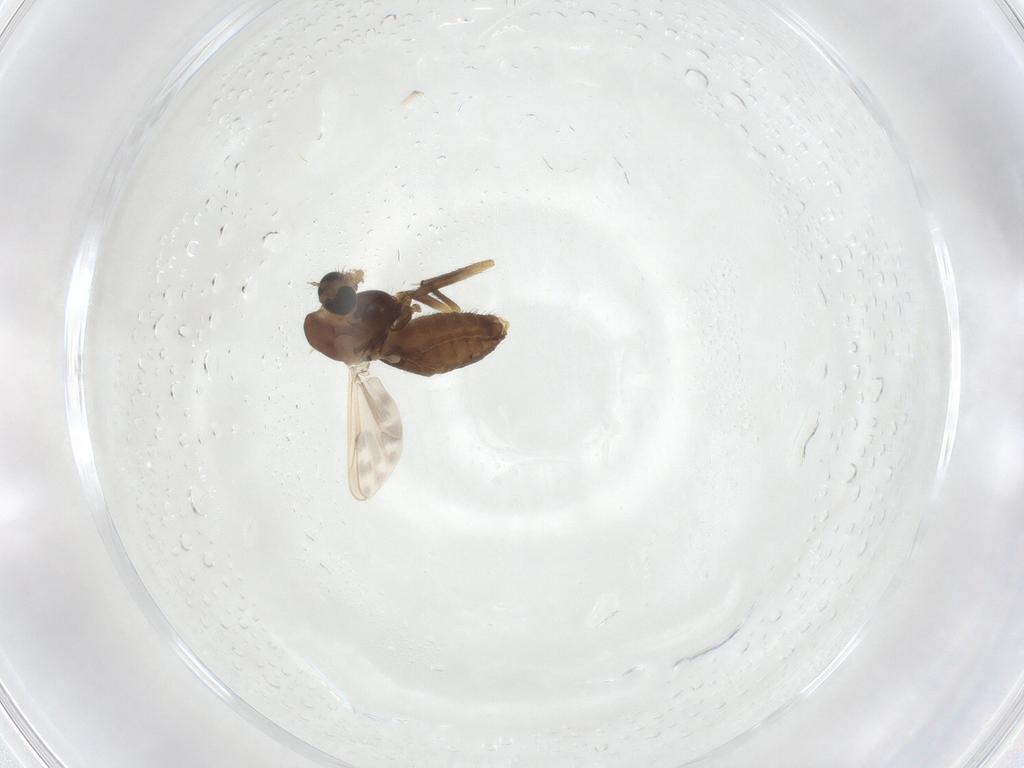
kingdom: Animalia
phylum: Arthropoda
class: Insecta
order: Diptera
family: Chironomidae
